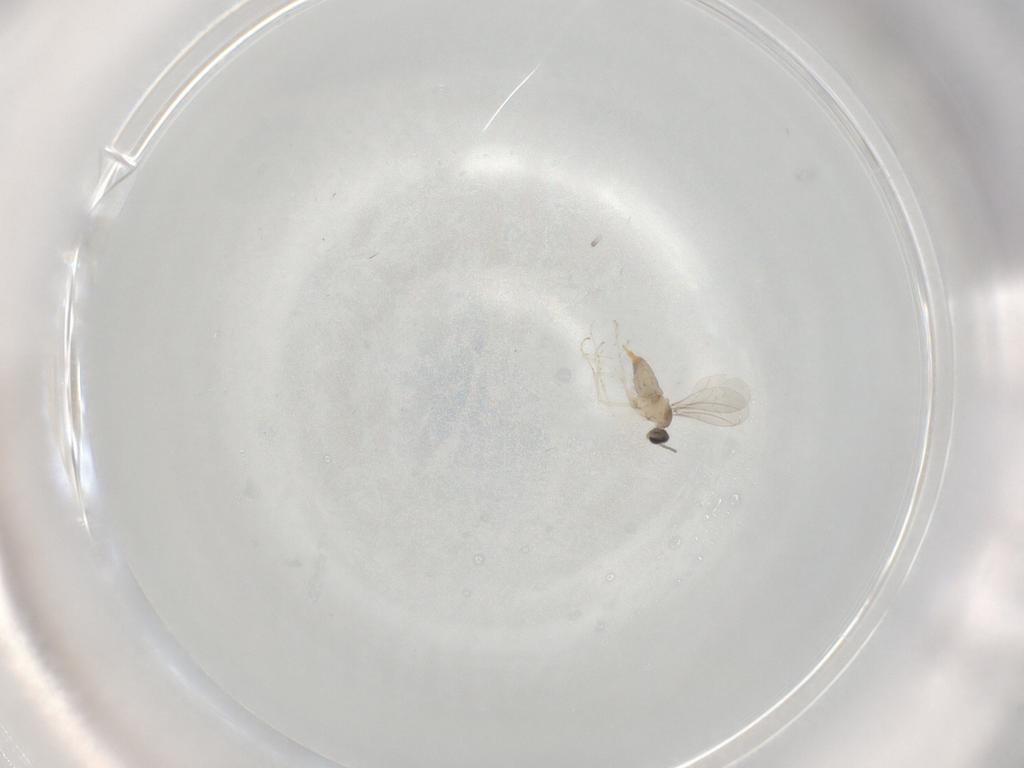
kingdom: Animalia
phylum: Arthropoda
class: Insecta
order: Diptera
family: Cecidomyiidae
